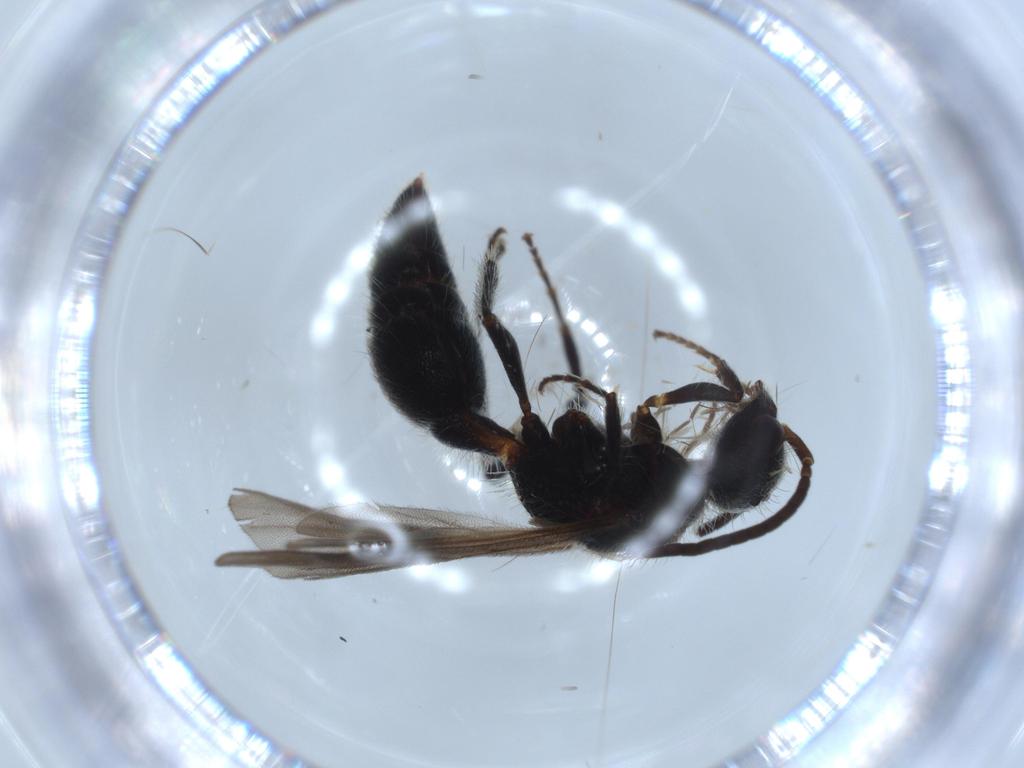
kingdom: Animalia
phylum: Arthropoda
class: Insecta
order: Hymenoptera
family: Mutillidae
